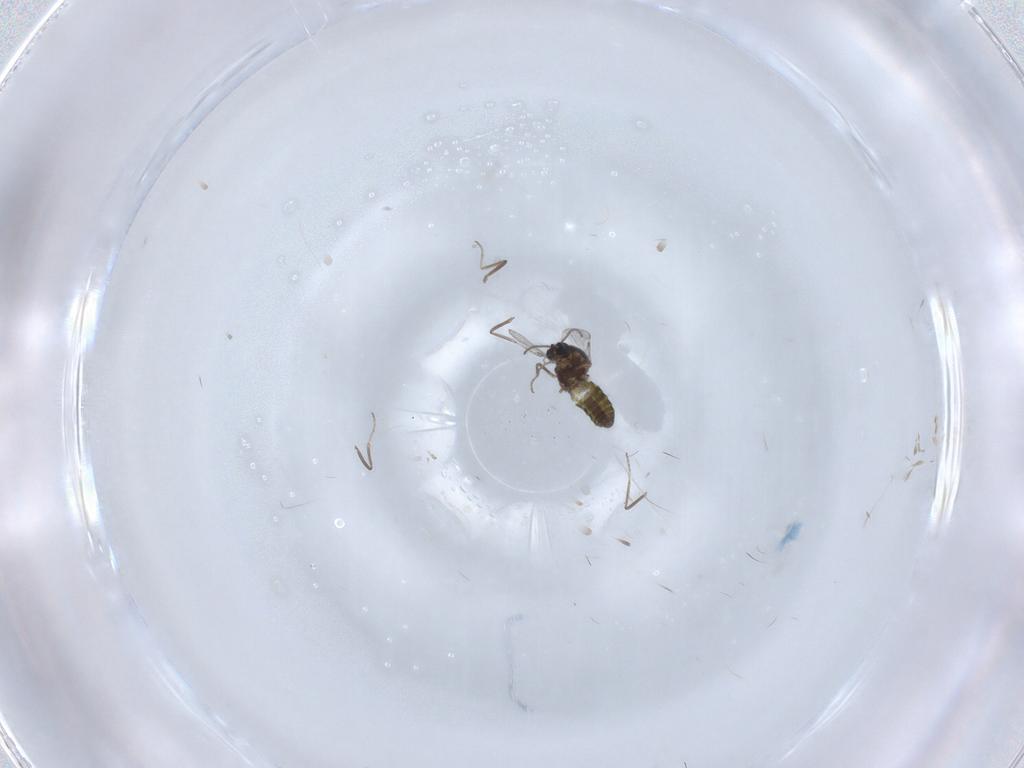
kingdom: Animalia
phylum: Arthropoda
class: Insecta
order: Diptera
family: Ceratopogonidae
